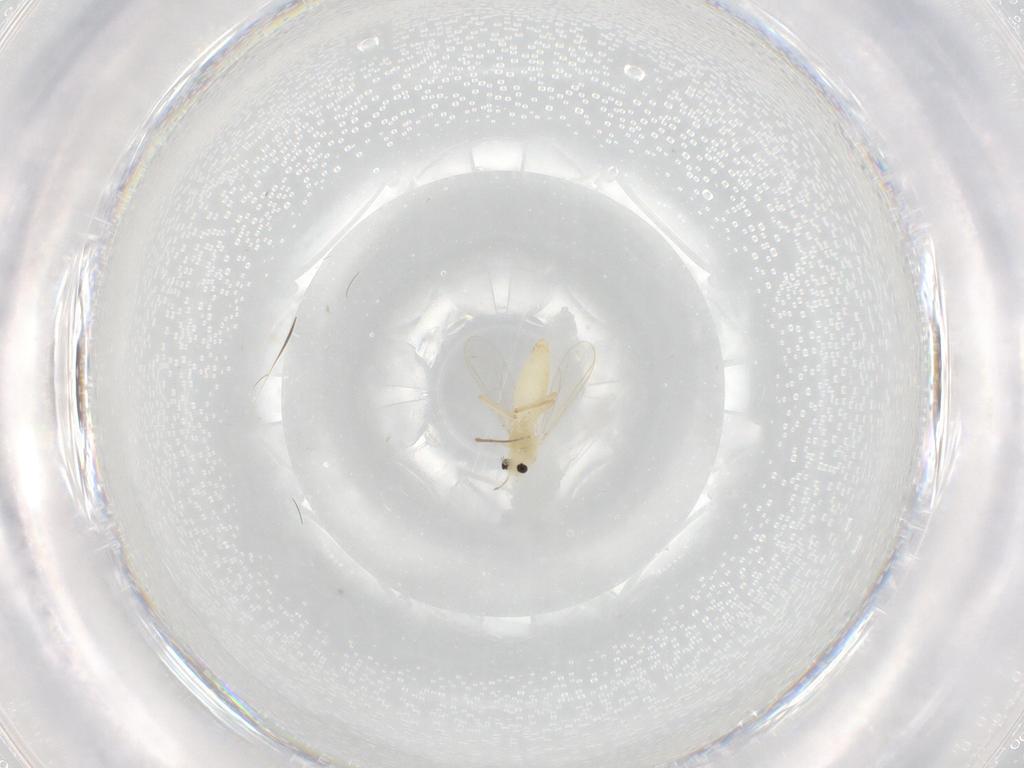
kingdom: Animalia
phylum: Arthropoda
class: Insecta
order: Diptera
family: Chironomidae
